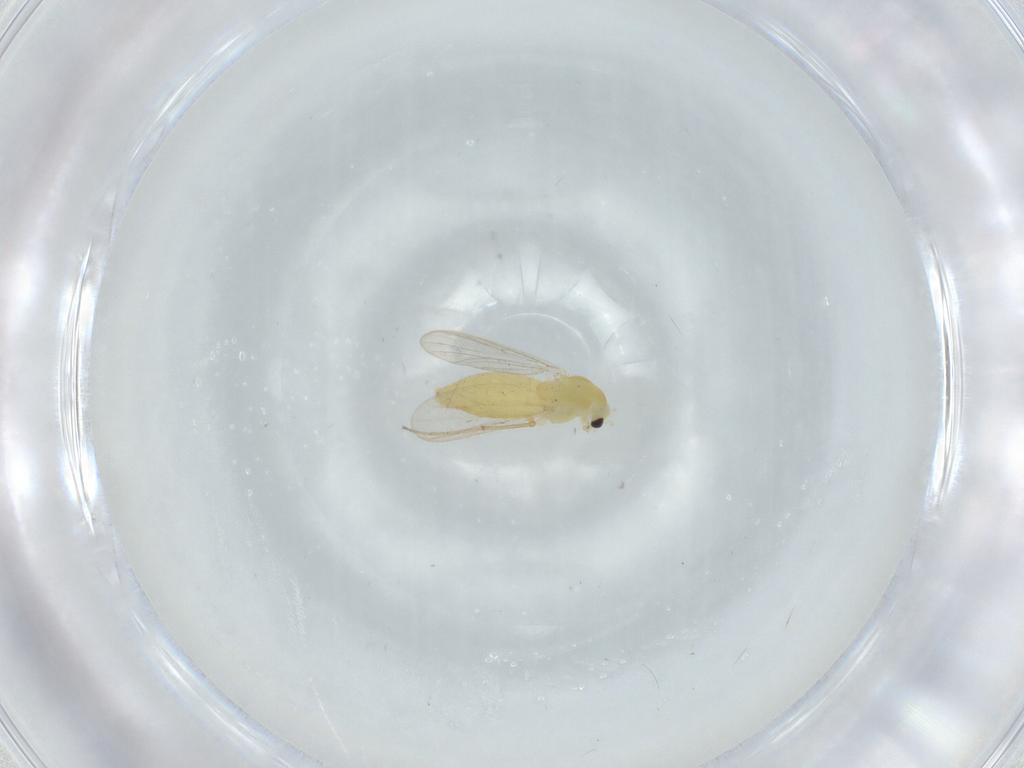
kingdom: Animalia
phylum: Arthropoda
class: Insecta
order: Diptera
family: Chironomidae
